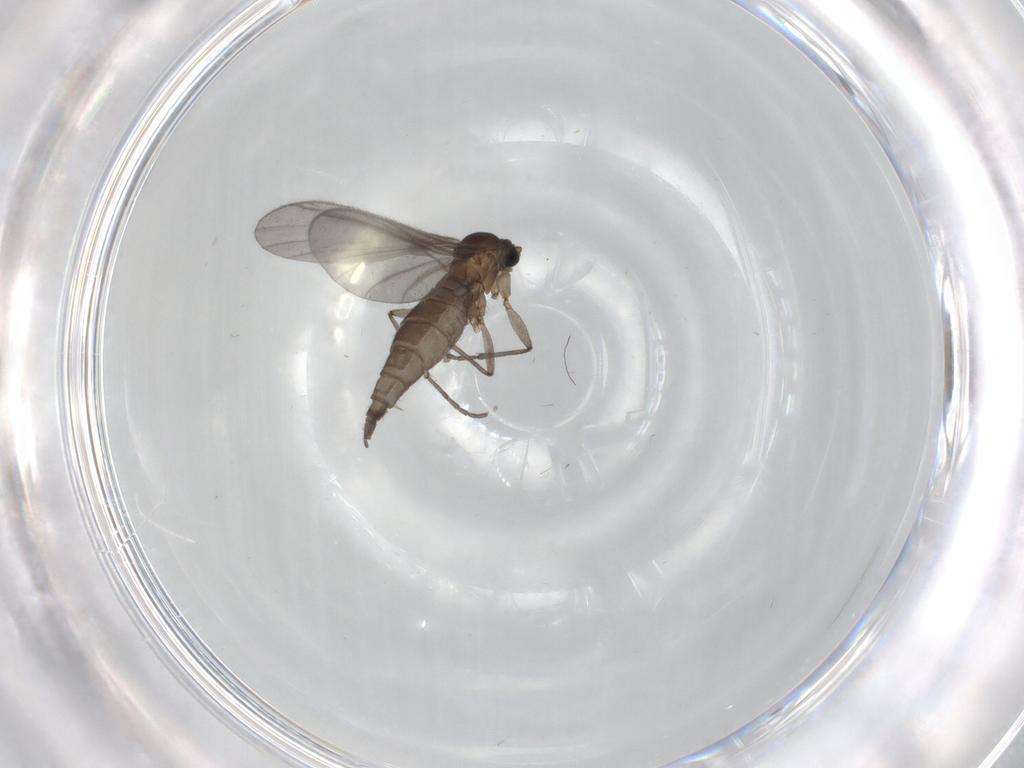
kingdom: Animalia
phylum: Arthropoda
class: Insecta
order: Diptera
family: Sciaridae
